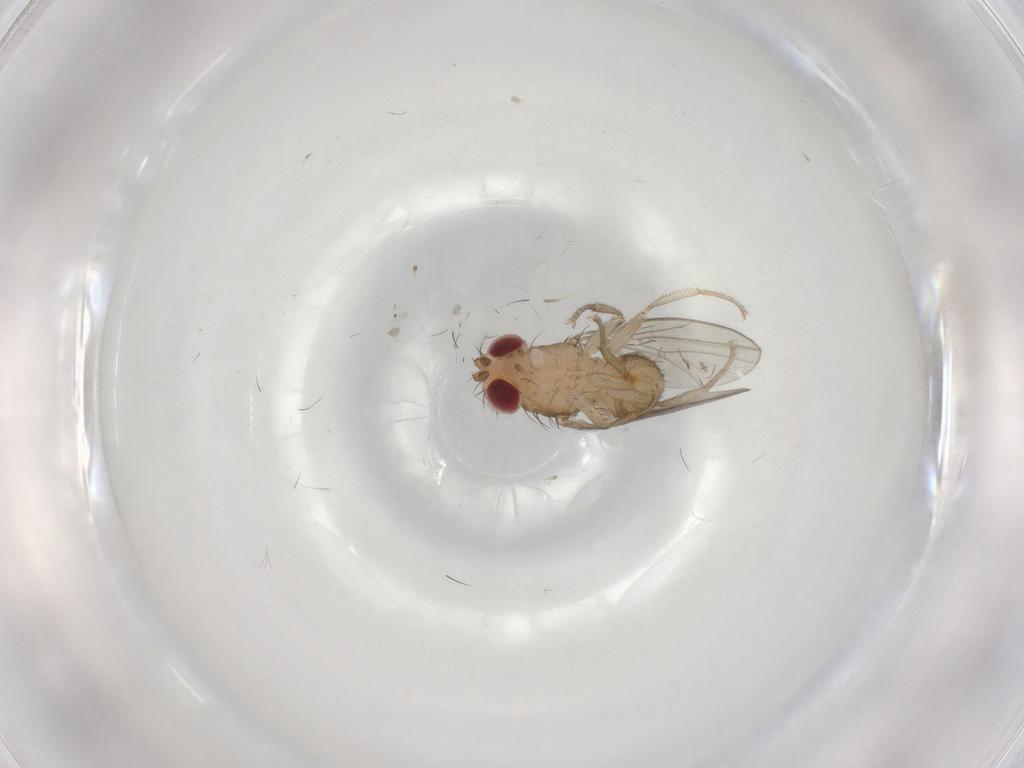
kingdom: Animalia
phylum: Arthropoda
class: Insecta
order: Diptera
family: Drosophilidae
